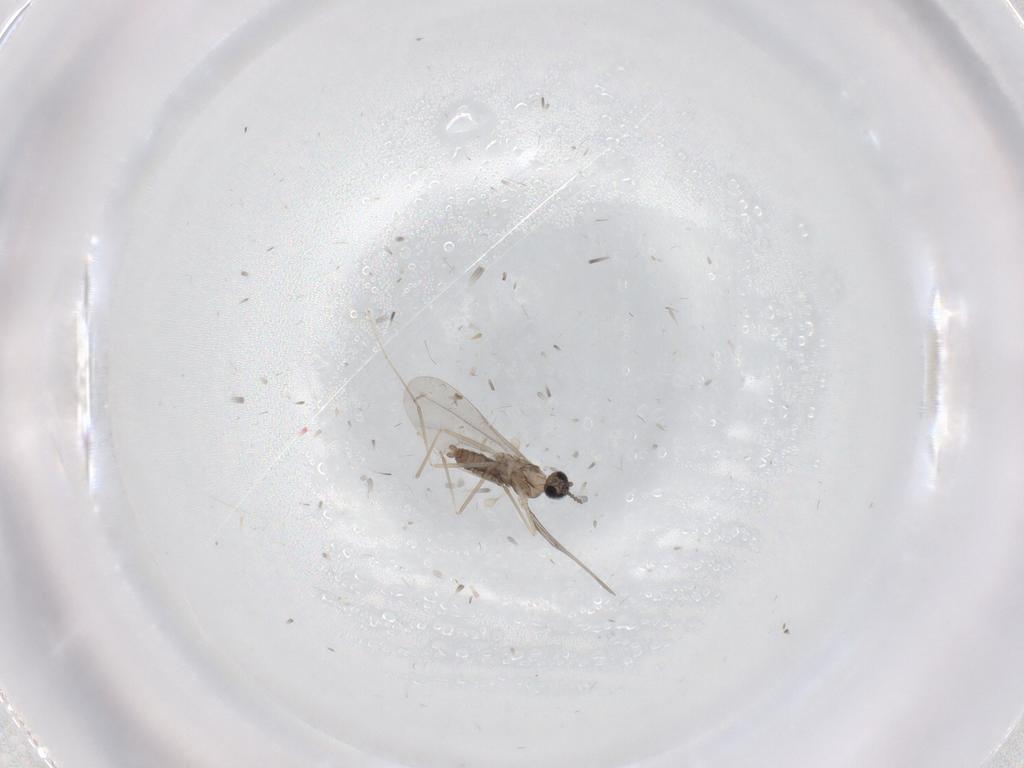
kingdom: Animalia
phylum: Arthropoda
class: Insecta
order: Diptera
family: Cecidomyiidae
